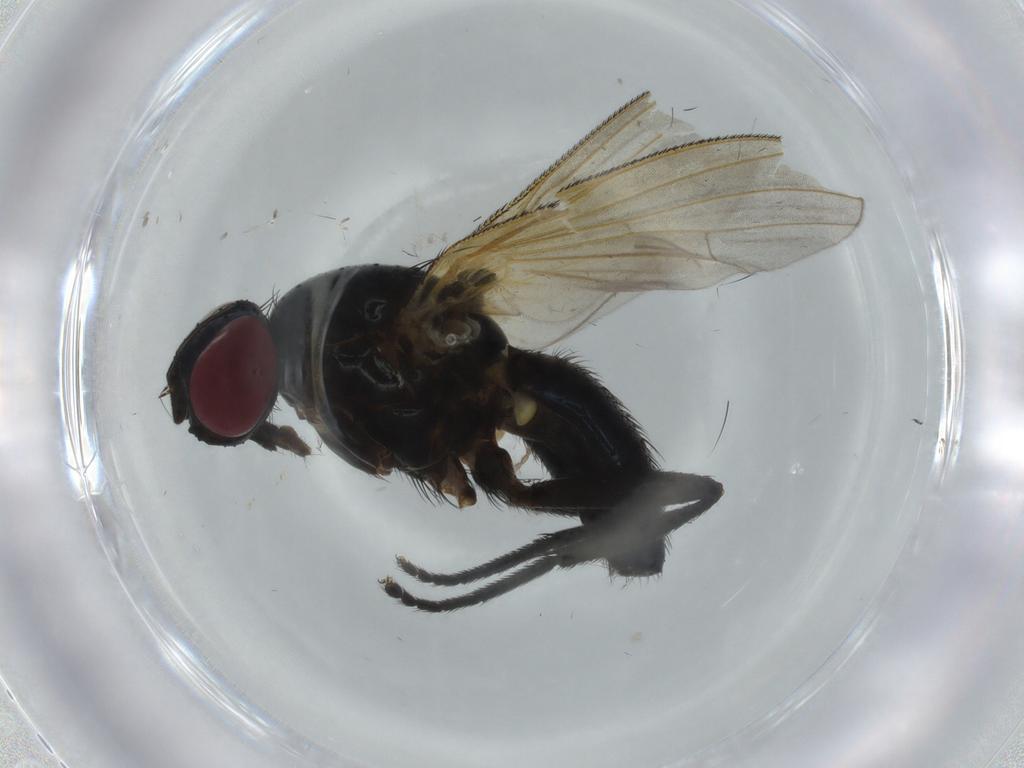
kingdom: Animalia
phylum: Arthropoda
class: Insecta
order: Diptera
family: Fannia
